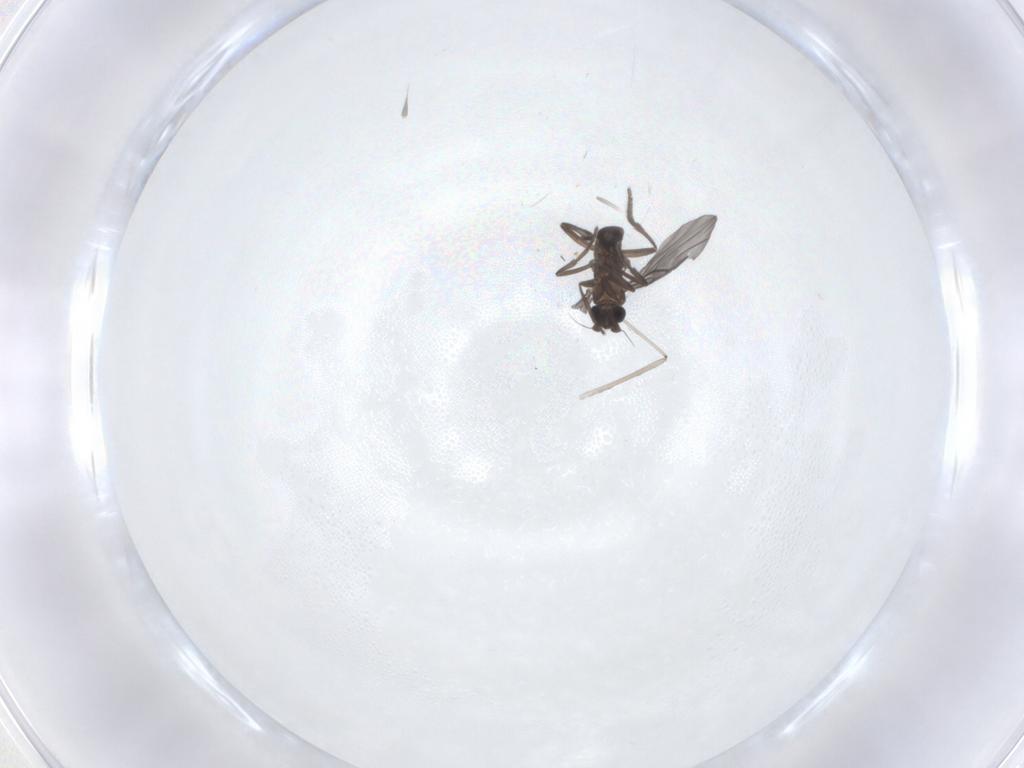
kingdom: Animalia
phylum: Arthropoda
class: Insecta
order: Diptera
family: Phoridae
